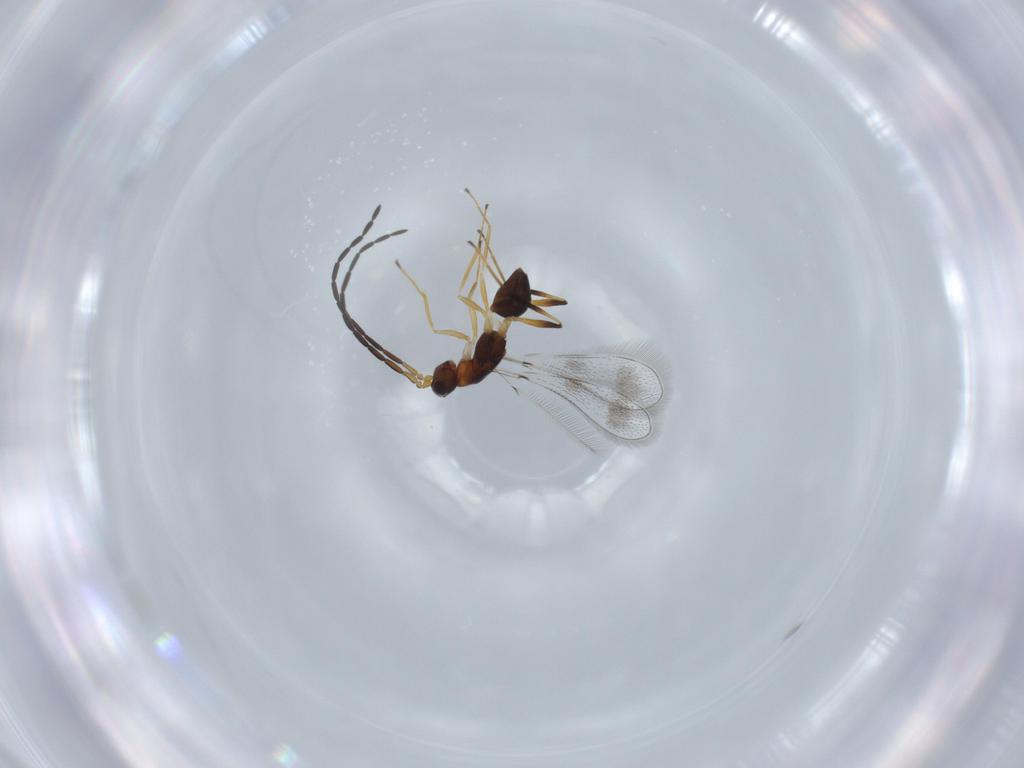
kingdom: Animalia
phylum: Arthropoda
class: Insecta
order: Hymenoptera
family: Mymaridae
